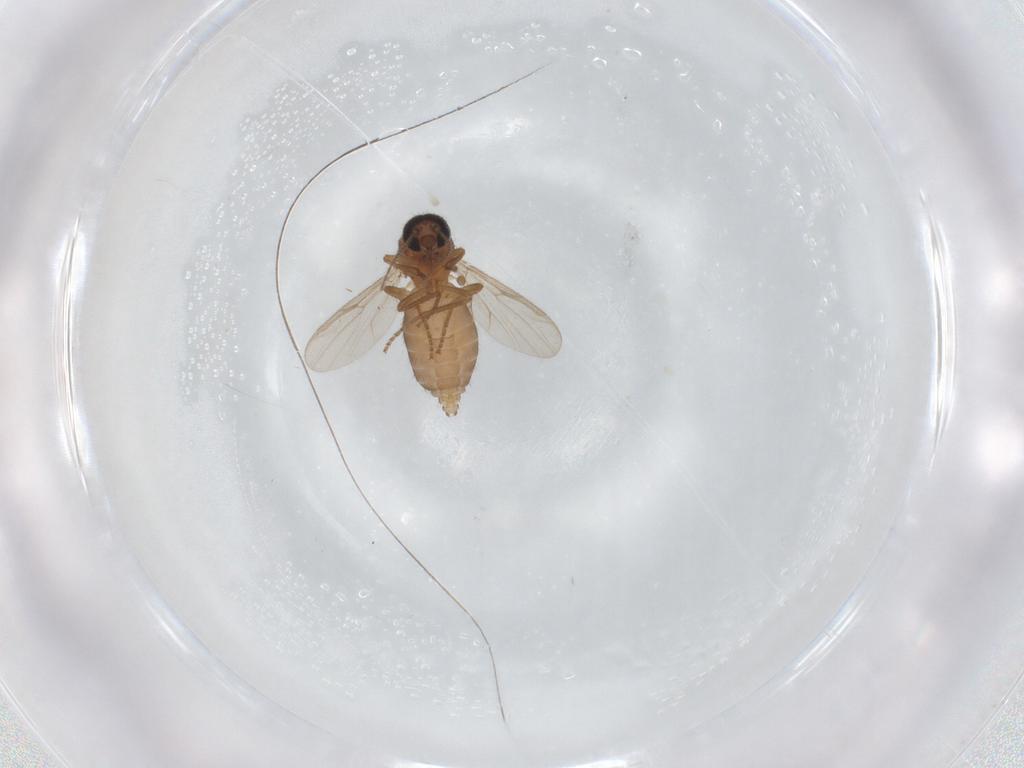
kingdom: Animalia
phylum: Arthropoda
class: Insecta
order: Diptera
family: Ceratopogonidae
